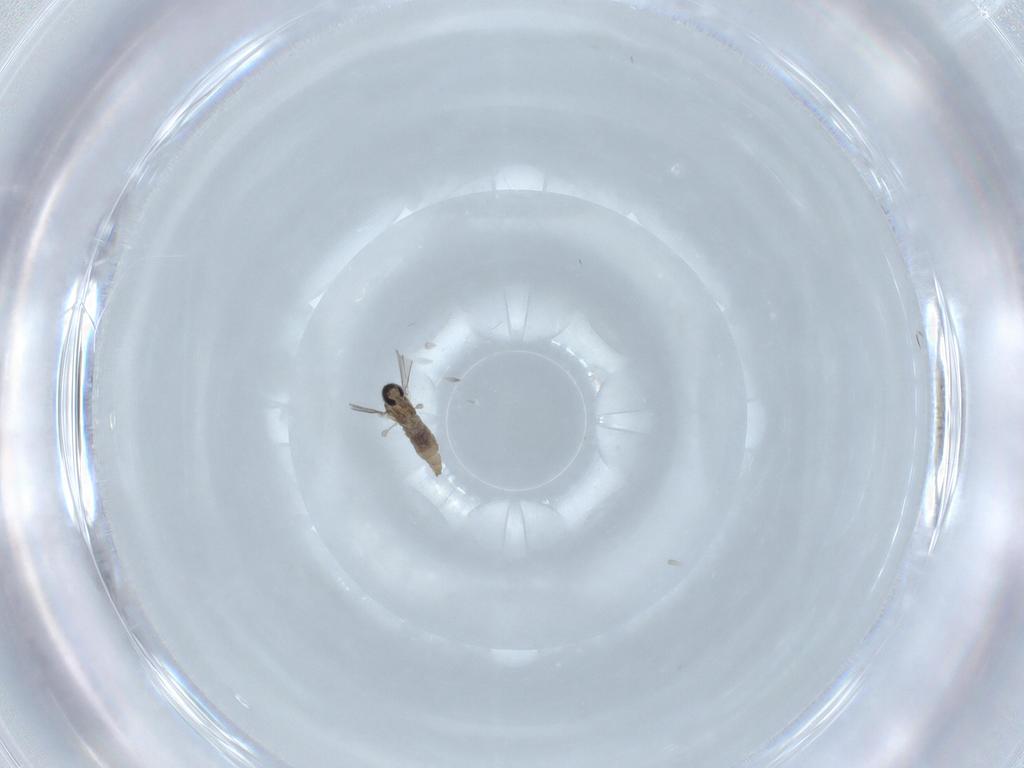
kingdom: Animalia
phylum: Arthropoda
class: Insecta
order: Diptera
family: Cecidomyiidae
